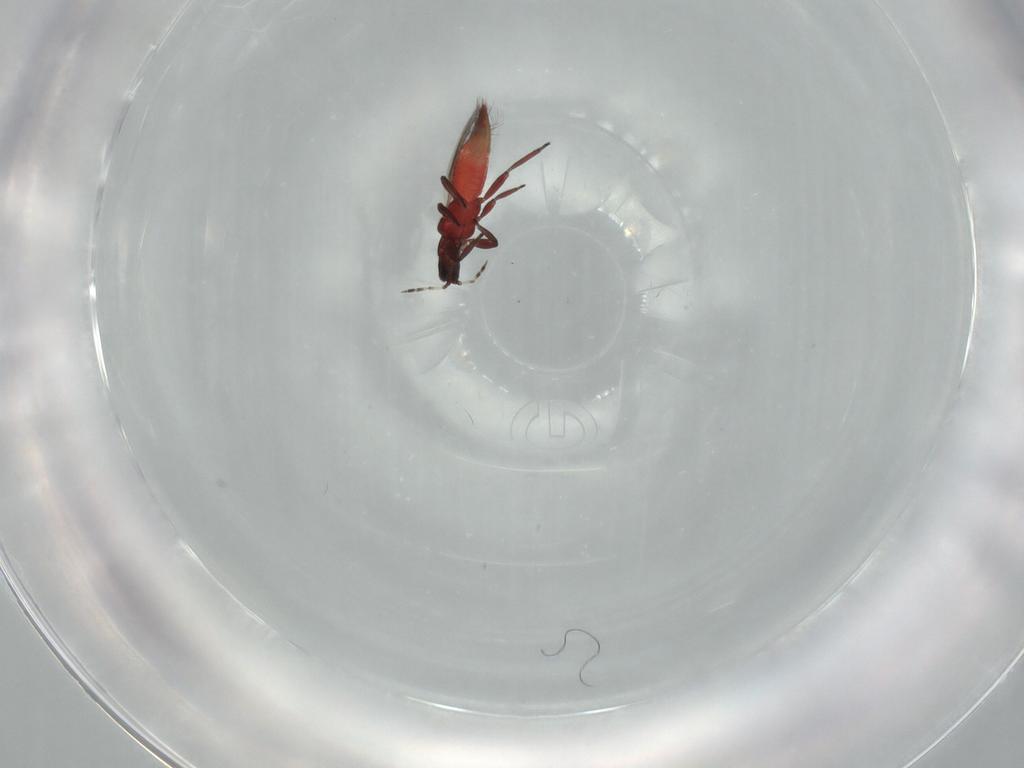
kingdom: Animalia
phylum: Arthropoda
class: Insecta
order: Thysanoptera
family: Aeolothripidae
